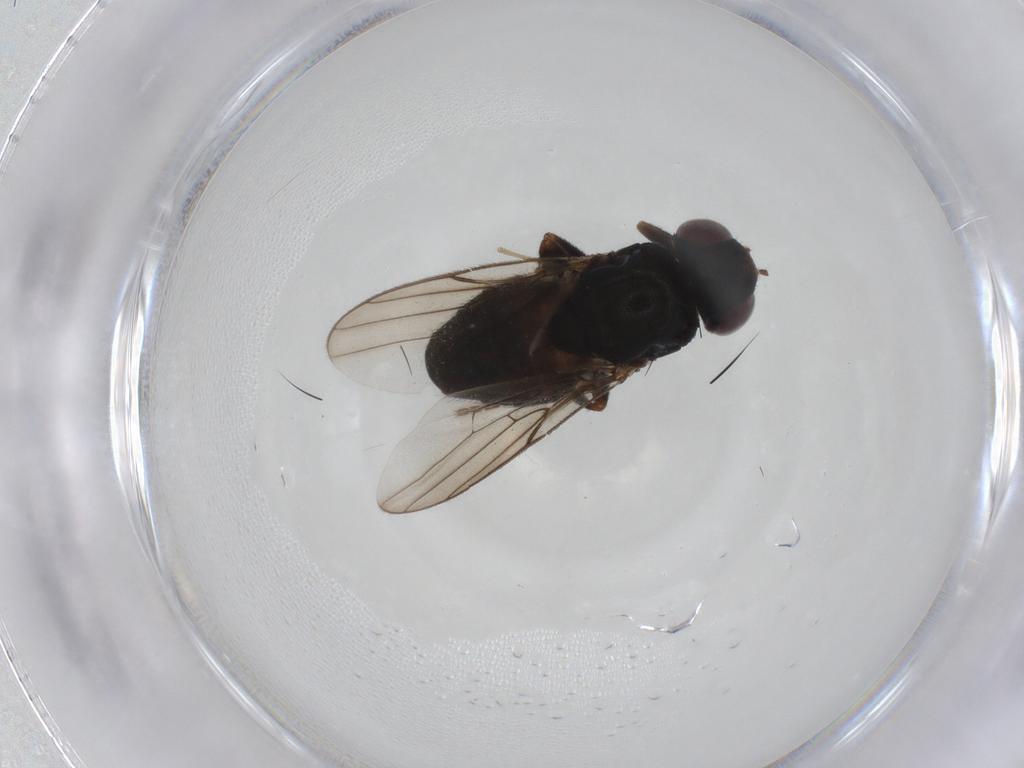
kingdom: Animalia
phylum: Arthropoda
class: Insecta
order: Diptera
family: Chloropidae
